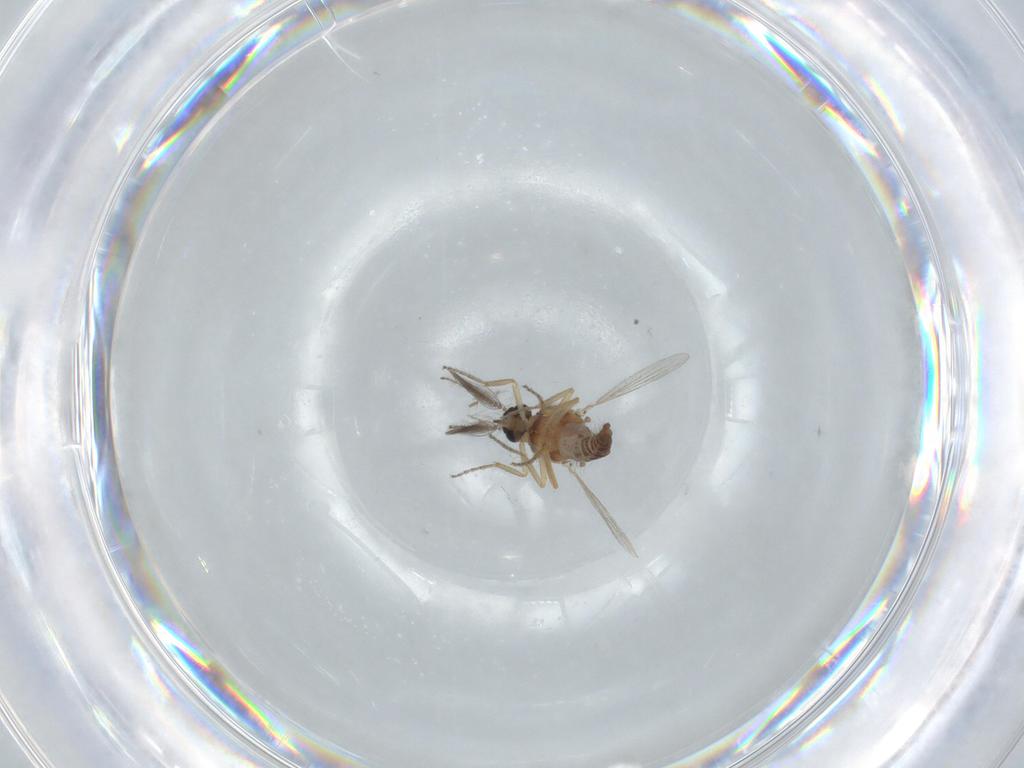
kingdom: Animalia
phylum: Arthropoda
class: Insecta
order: Diptera
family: Ceratopogonidae
